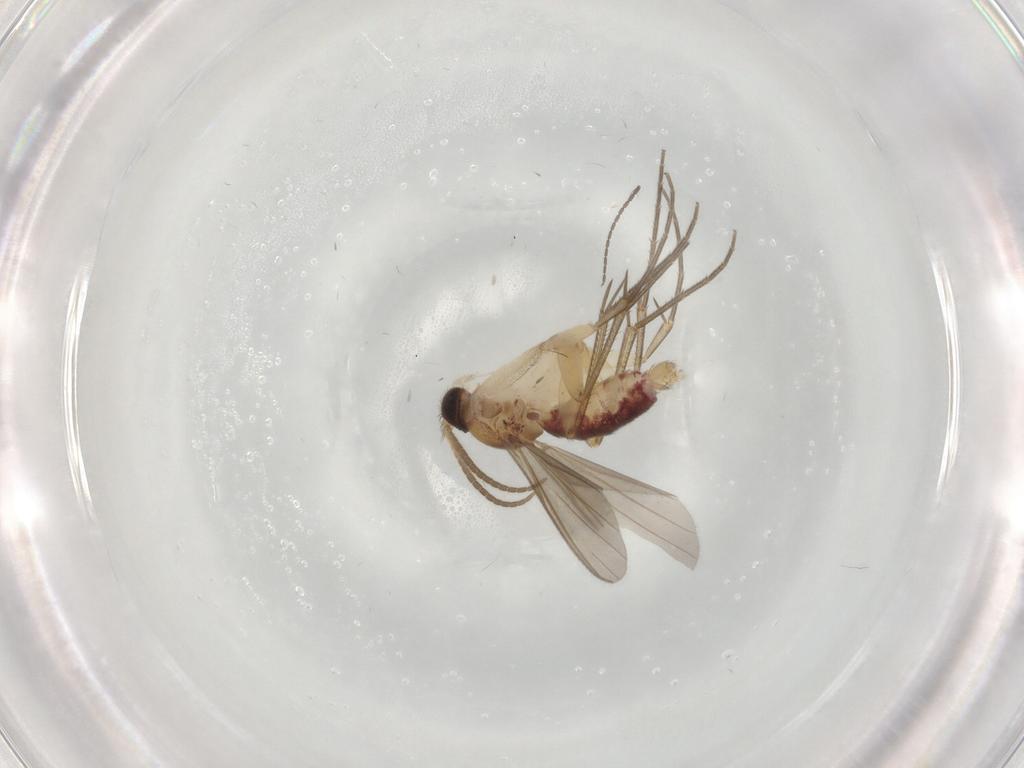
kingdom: Animalia
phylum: Arthropoda
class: Insecta
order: Diptera
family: Mycetophilidae
